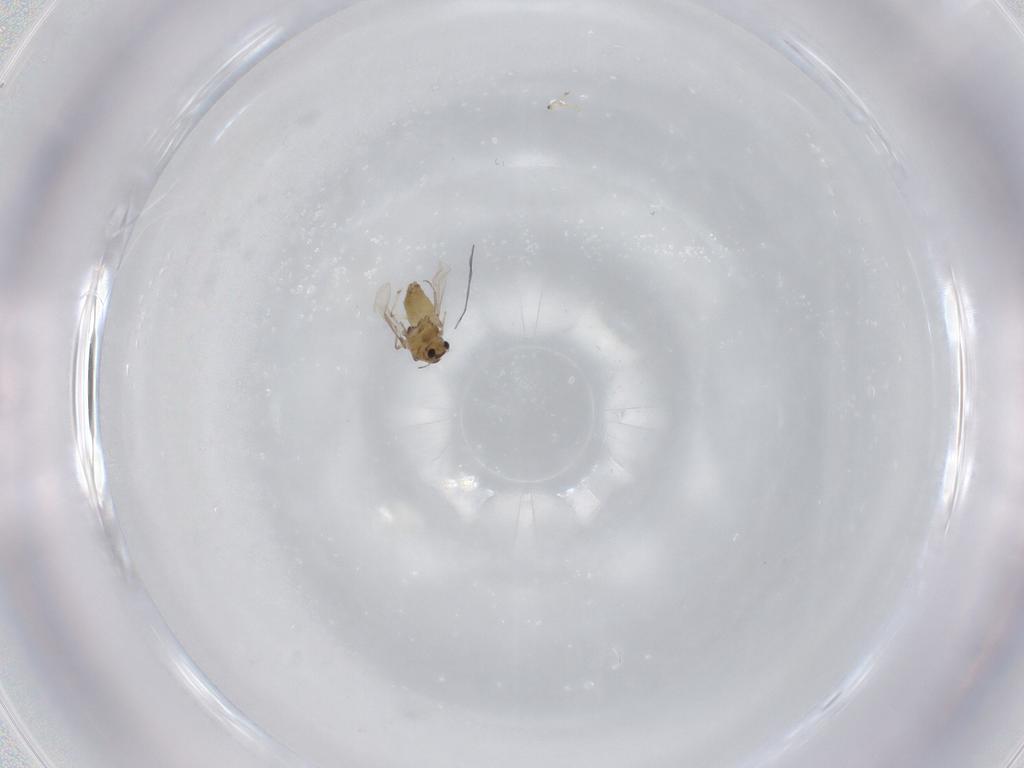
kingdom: Animalia
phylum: Arthropoda
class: Insecta
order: Diptera
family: Chironomidae
